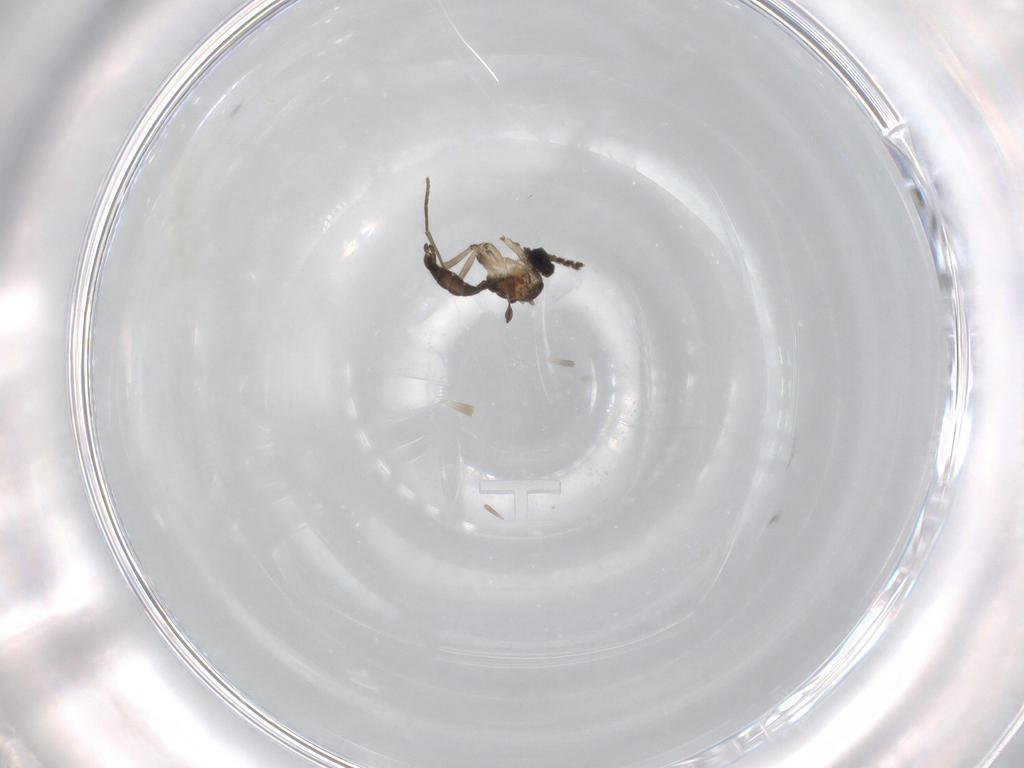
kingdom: Animalia
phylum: Arthropoda
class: Insecta
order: Diptera
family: Sciaridae
